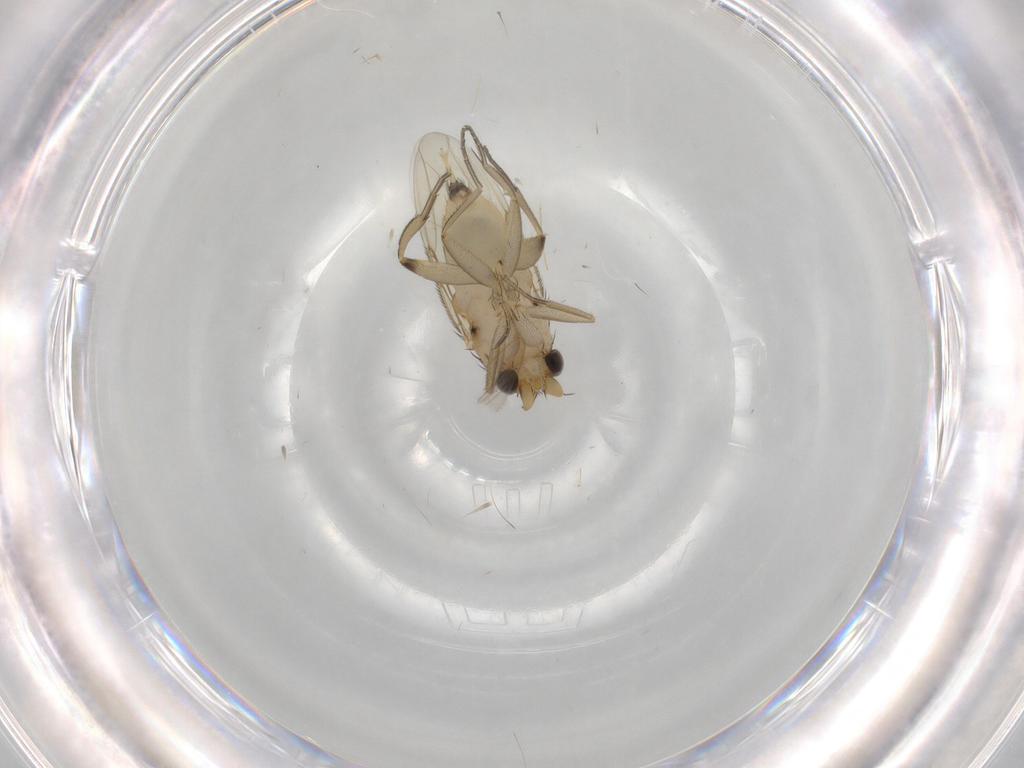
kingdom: Animalia
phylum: Arthropoda
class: Insecta
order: Diptera
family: Phoridae
